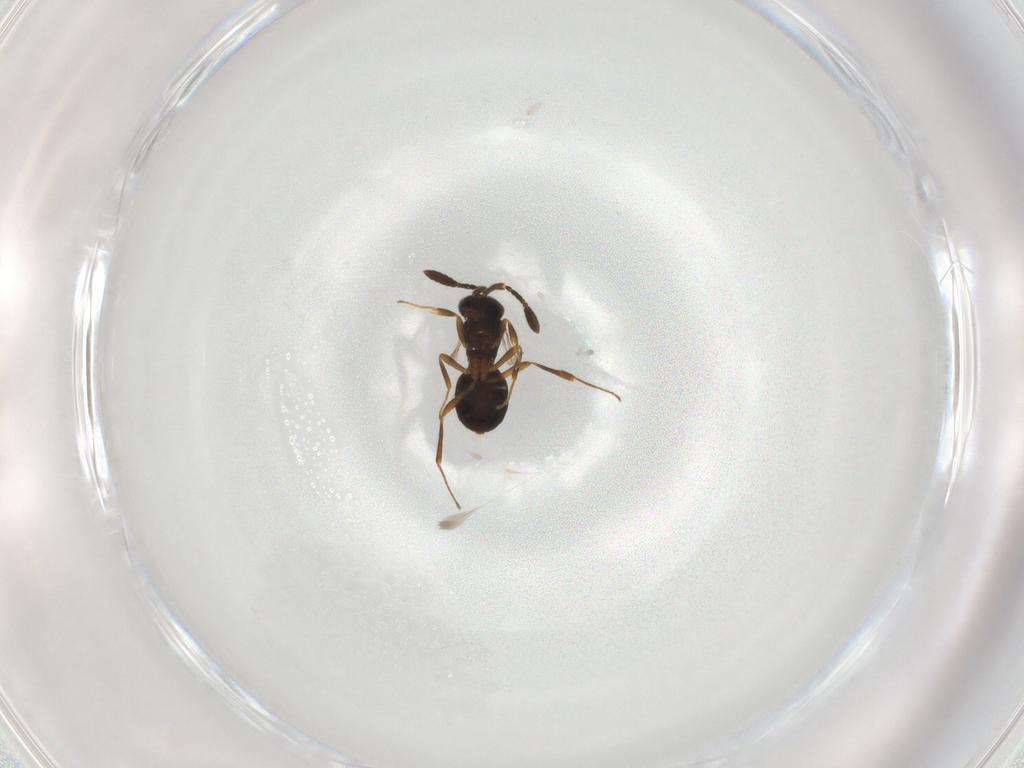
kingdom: Animalia
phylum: Arthropoda
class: Insecta
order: Hymenoptera
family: Scelionidae
